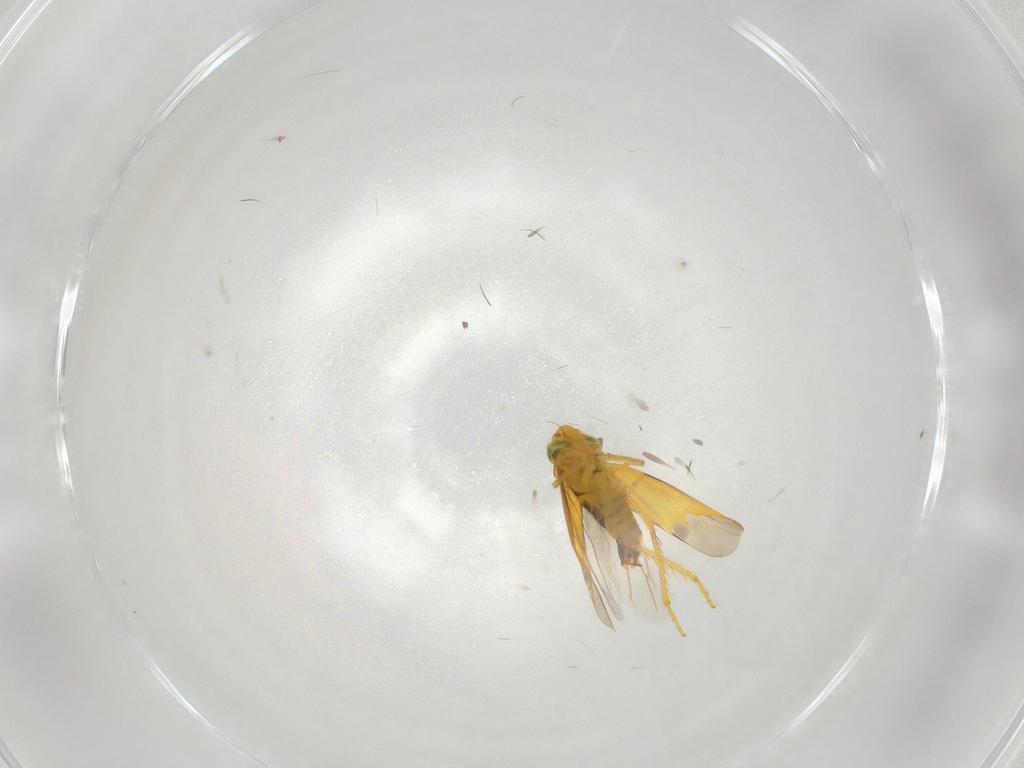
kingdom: Animalia
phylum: Arthropoda
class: Insecta
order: Hemiptera
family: Cicadellidae
